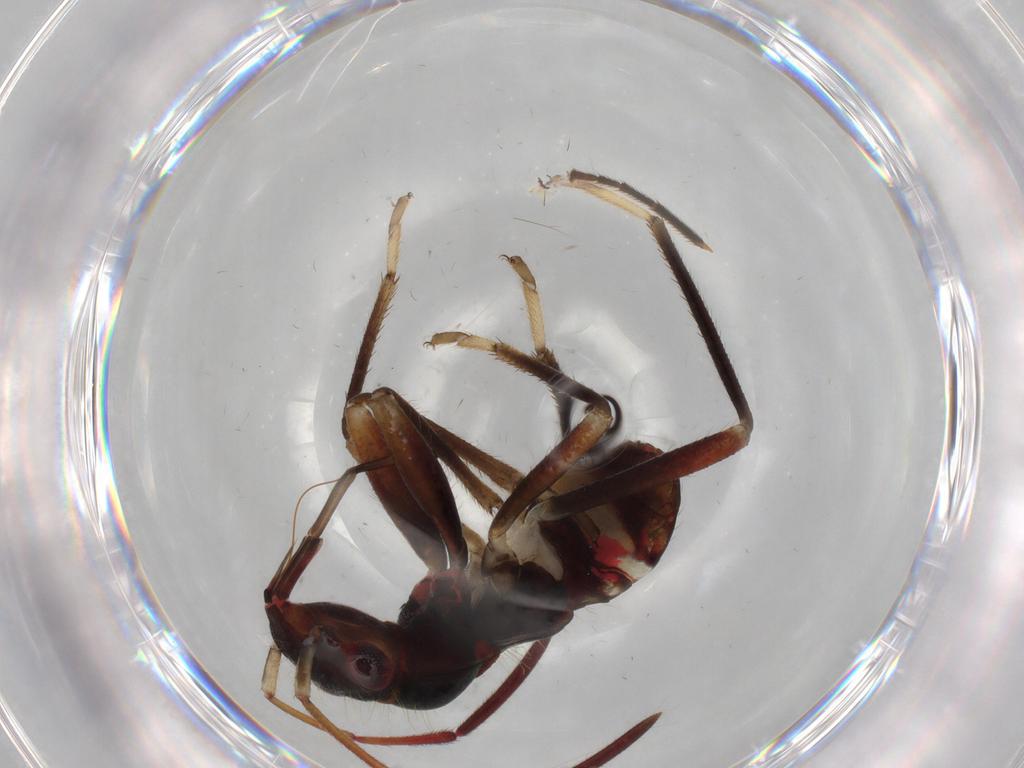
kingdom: Animalia
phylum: Arthropoda
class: Insecta
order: Hemiptera
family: Rhyparochromidae
